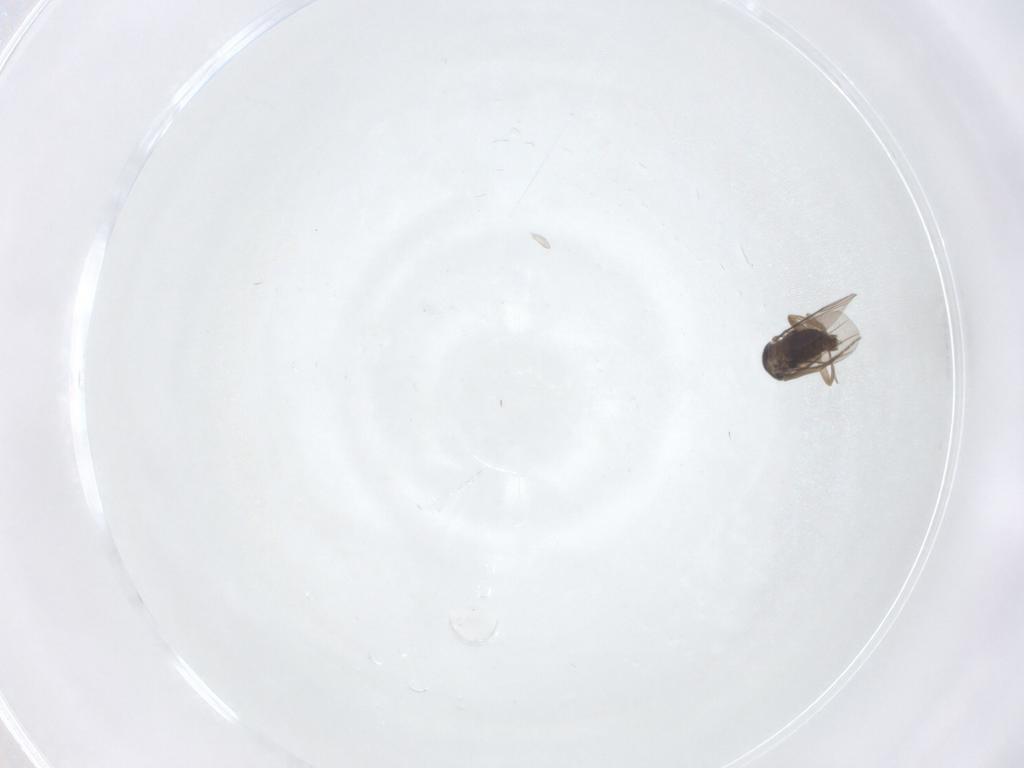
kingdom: Animalia
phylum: Arthropoda
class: Insecta
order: Diptera
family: Phoridae
